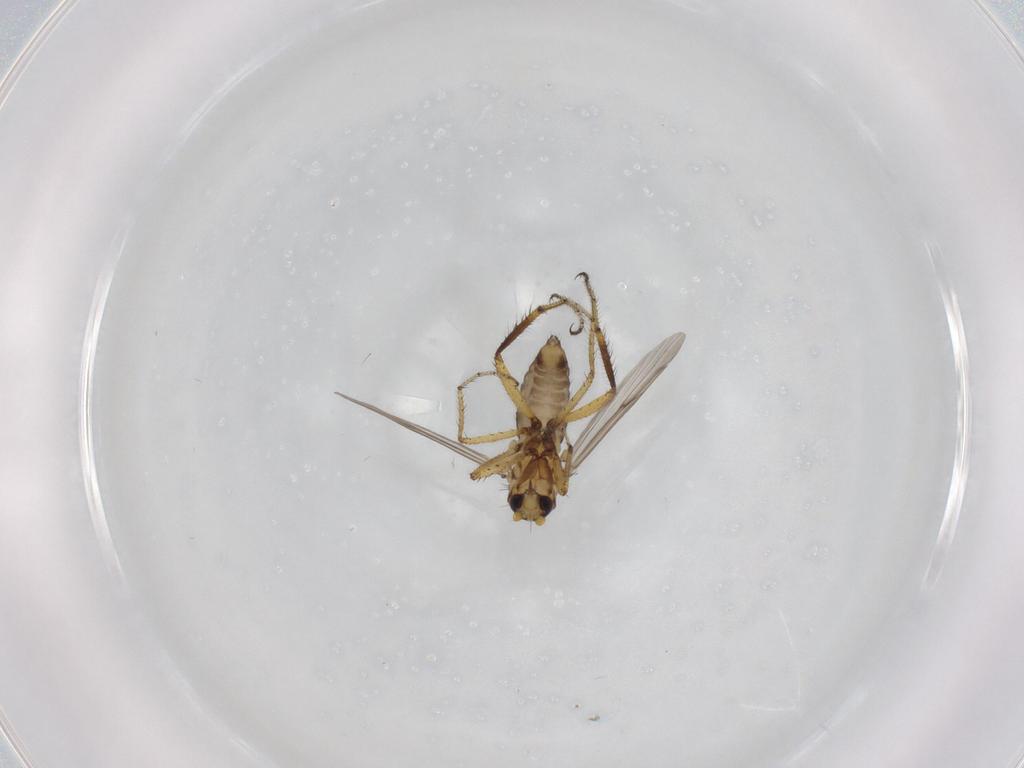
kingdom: Animalia
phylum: Arthropoda
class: Insecta
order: Diptera
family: Ceratopogonidae
